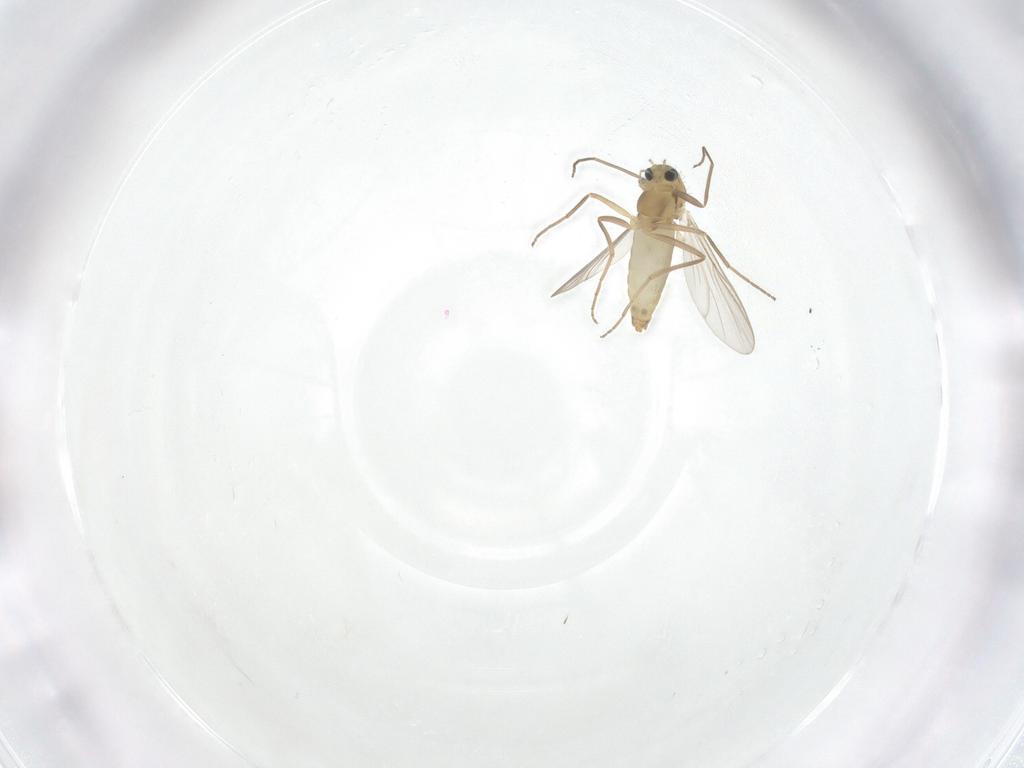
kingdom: Animalia
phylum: Arthropoda
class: Insecta
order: Diptera
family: Chironomidae
